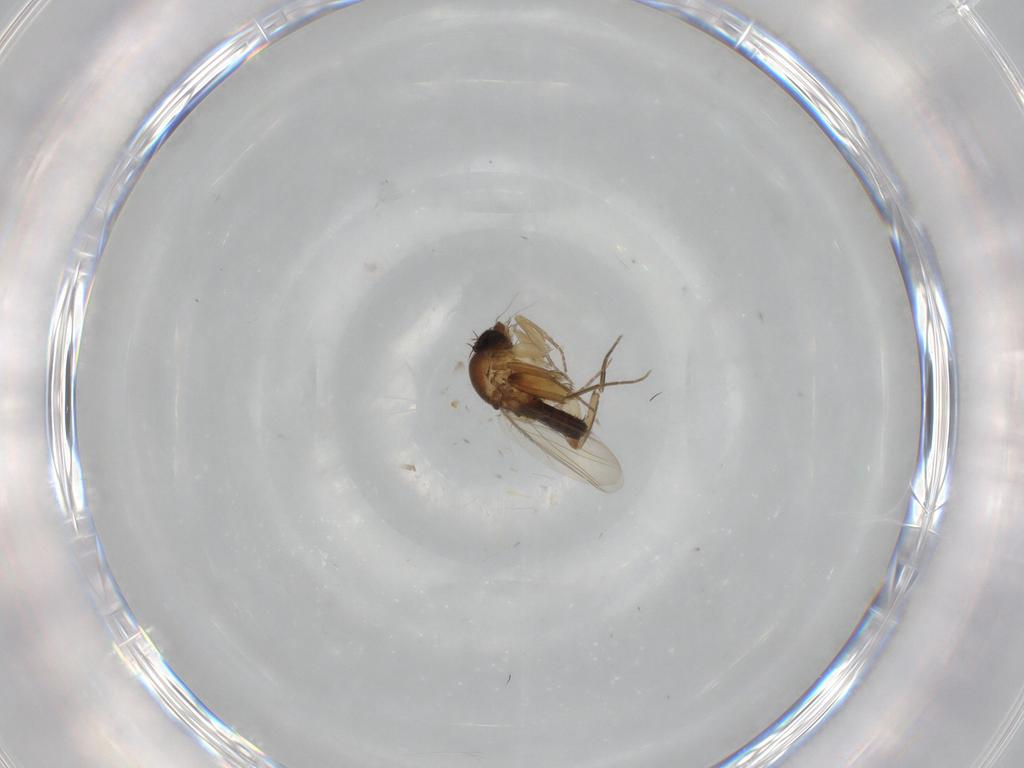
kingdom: Animalia
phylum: Arthropoda
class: Insecta
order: Diptera
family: Phoridae
